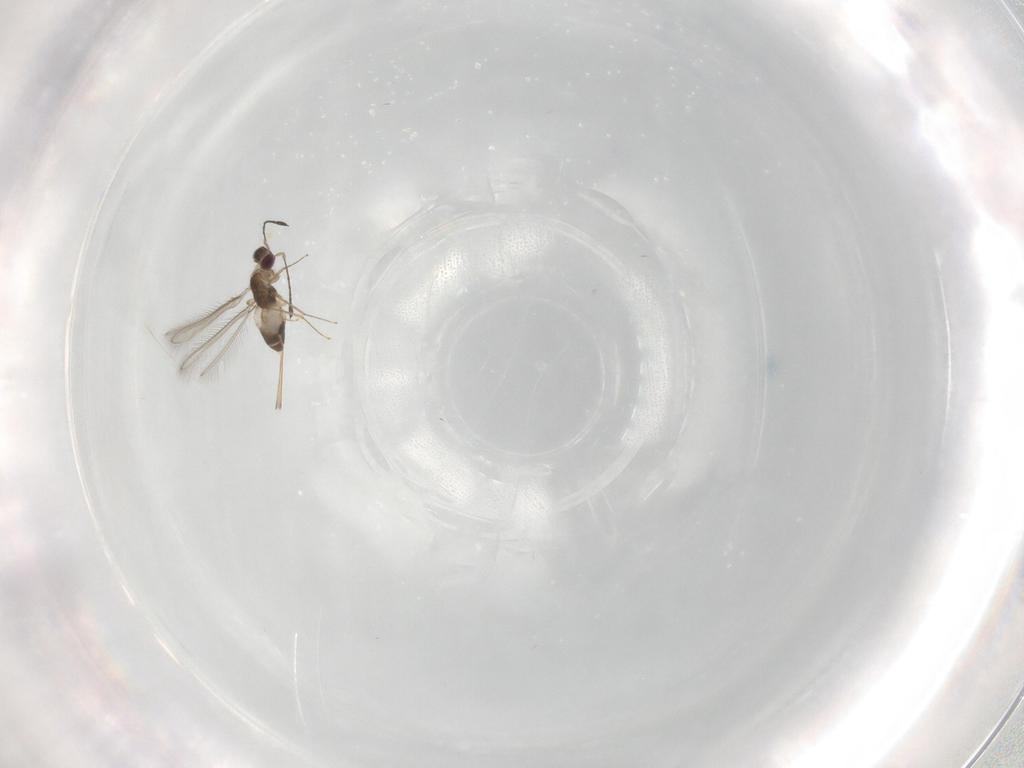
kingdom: Animalia
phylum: Arthropoda
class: Insecta
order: Hymenoptera
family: Mymaridae
